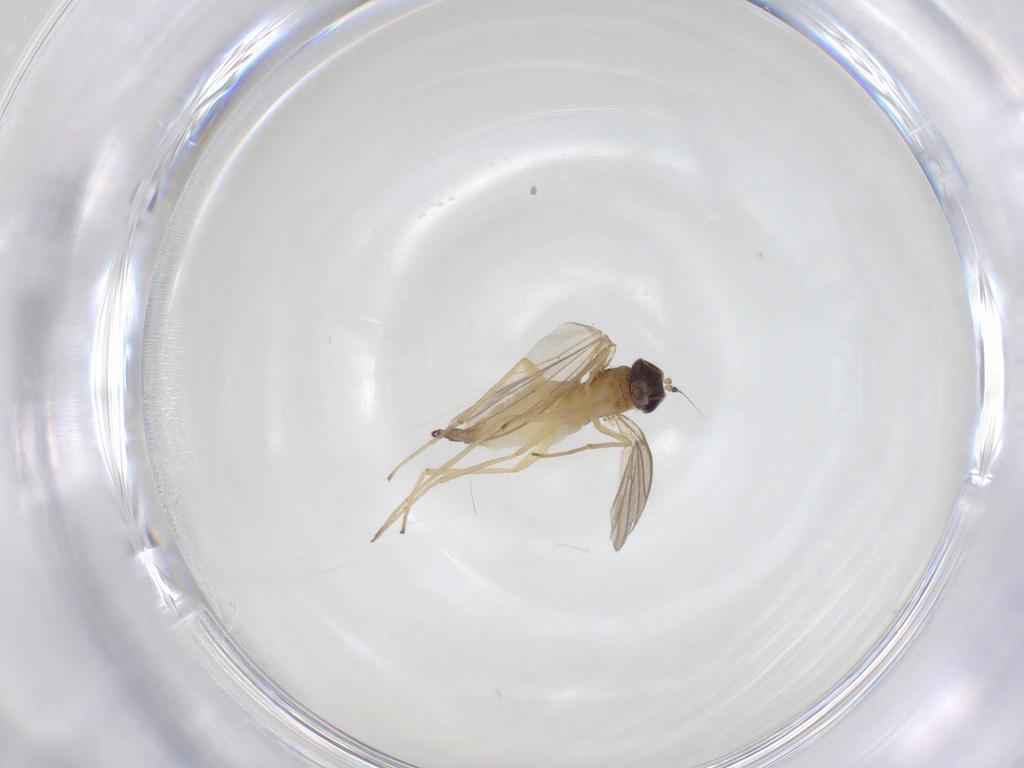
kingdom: Animalia
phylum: Arthropoda
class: Insecta
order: Diptera
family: Dolichopodidae
